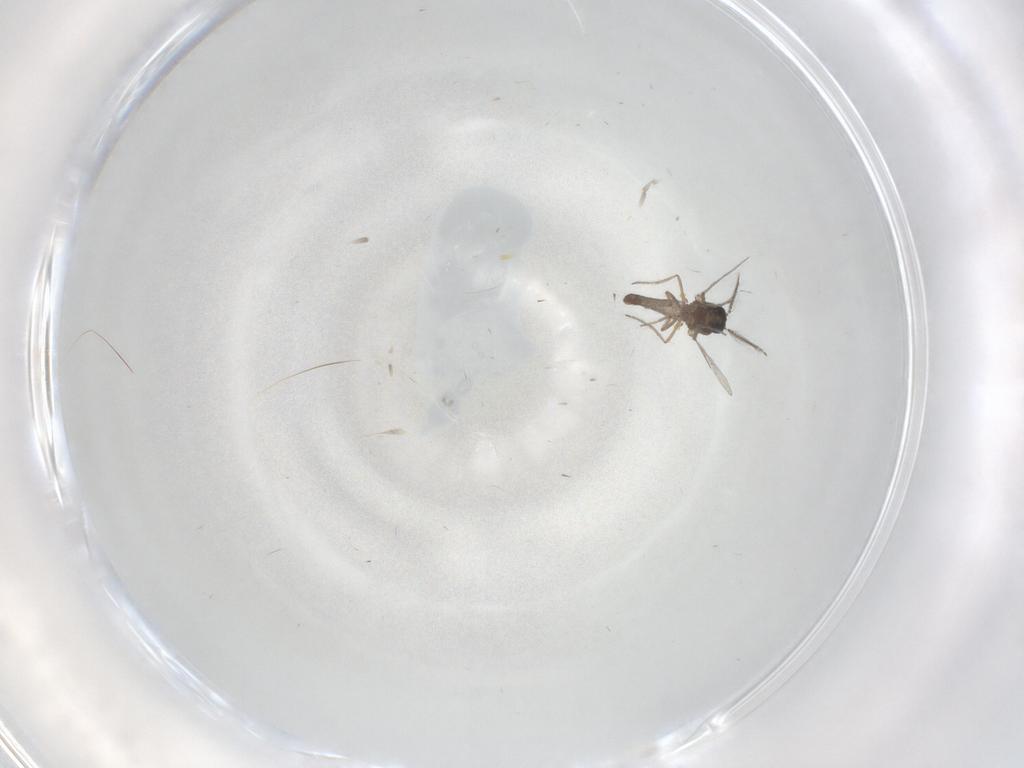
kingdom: Animalia
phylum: Arthropoda
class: Insecta
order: Diptera
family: Ceratopogonidae
